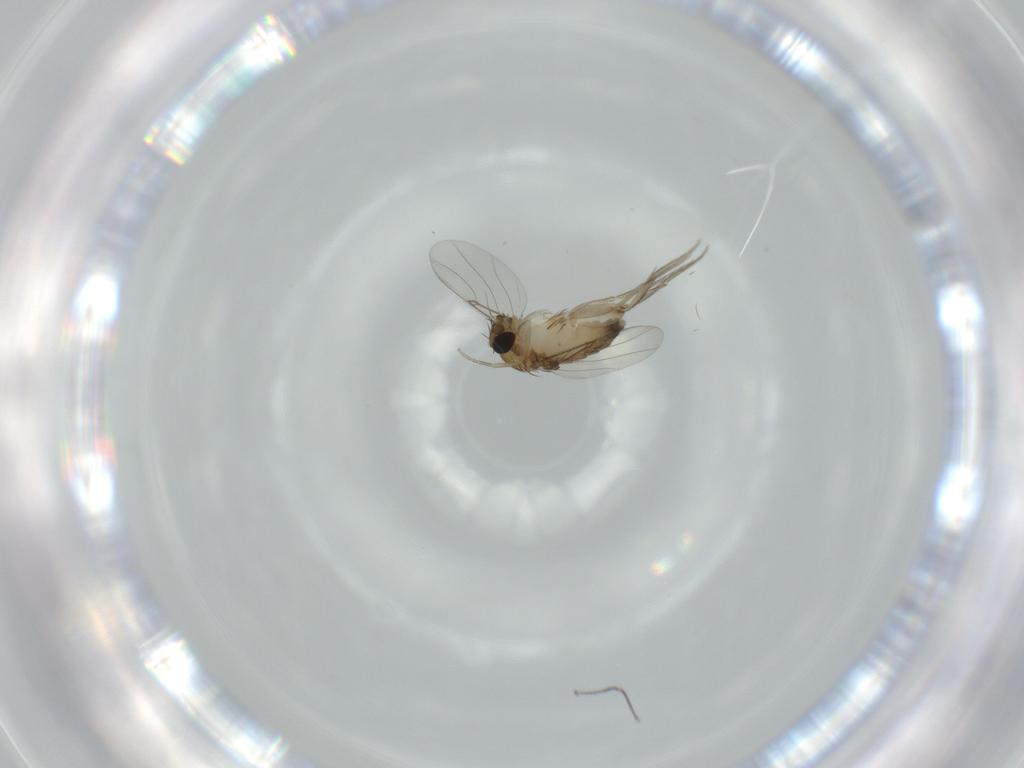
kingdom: Animalia
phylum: Arthropoda
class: Insecta
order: Diptera
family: Phoridae
